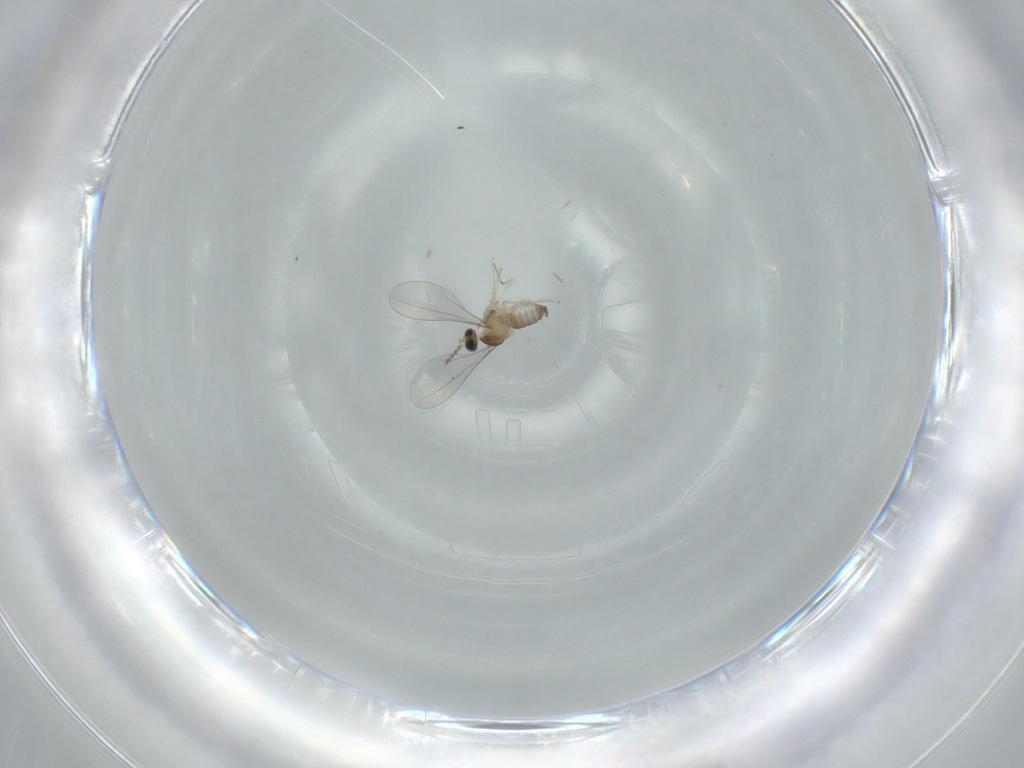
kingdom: Animalia
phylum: Arthropoda
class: Insecta
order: Diptera
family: Cecidomyiidae
